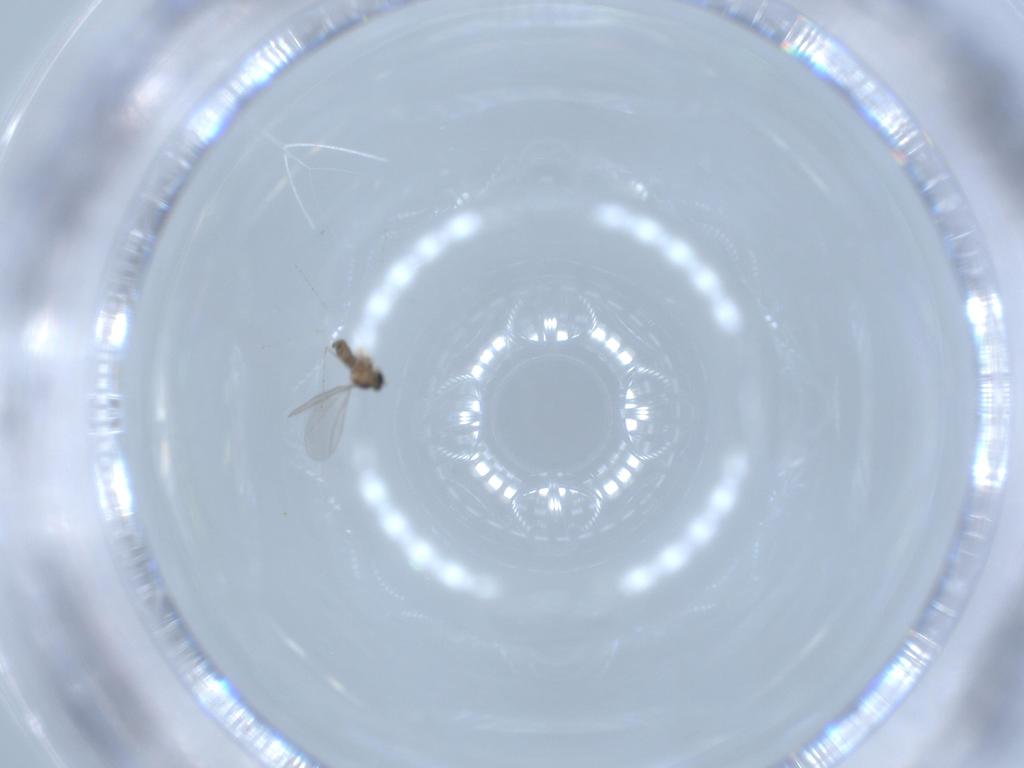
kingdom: Animalia
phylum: Arthropoda
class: Insecta
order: Diptera
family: Cecidomyiidae
